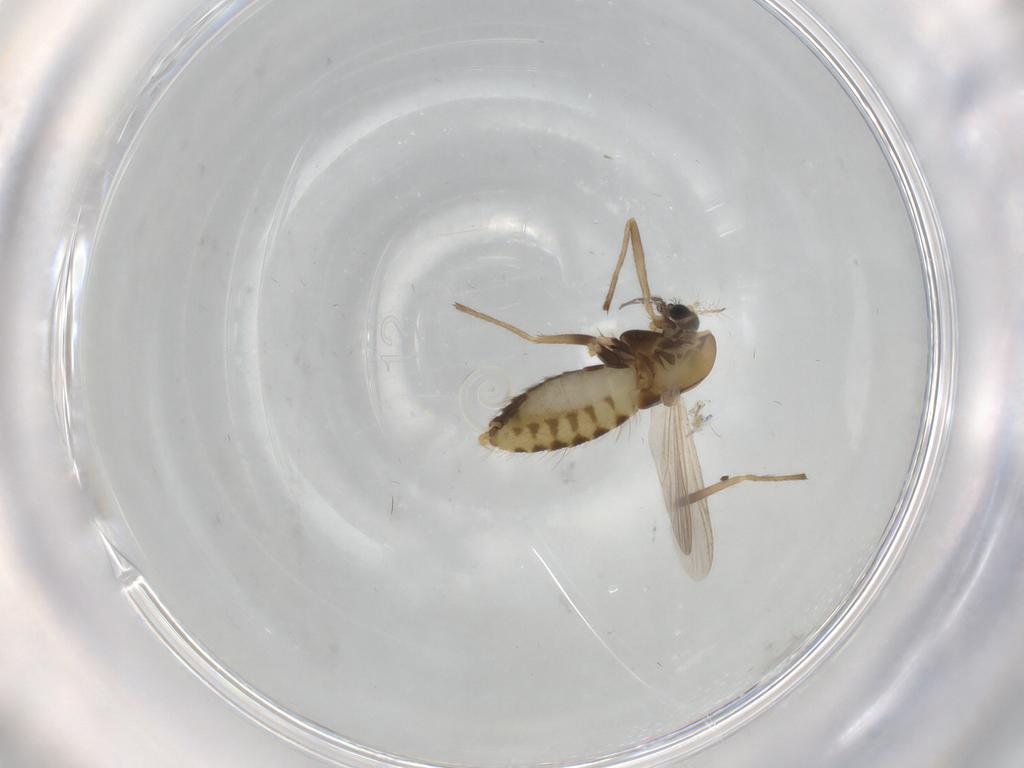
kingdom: Animalia
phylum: Arthropoda
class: Insecta
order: Diptera
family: Chironomidae
